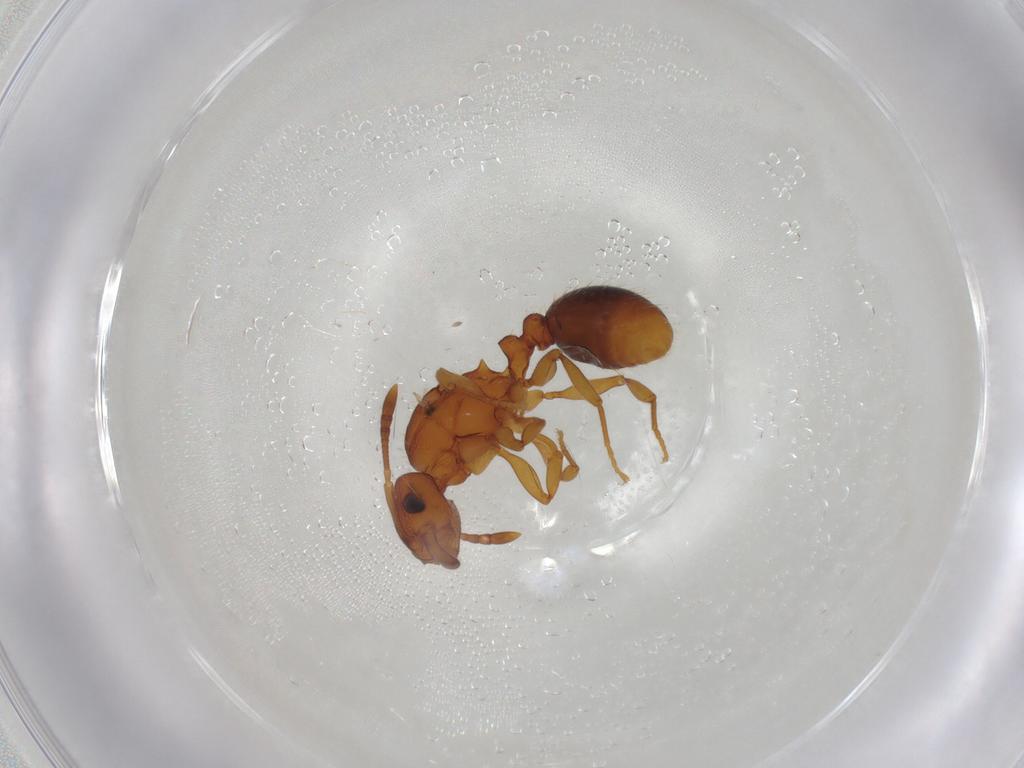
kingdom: Animalia
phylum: Arthropoda
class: Insecta
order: Hymenoptera
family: Formicidae
